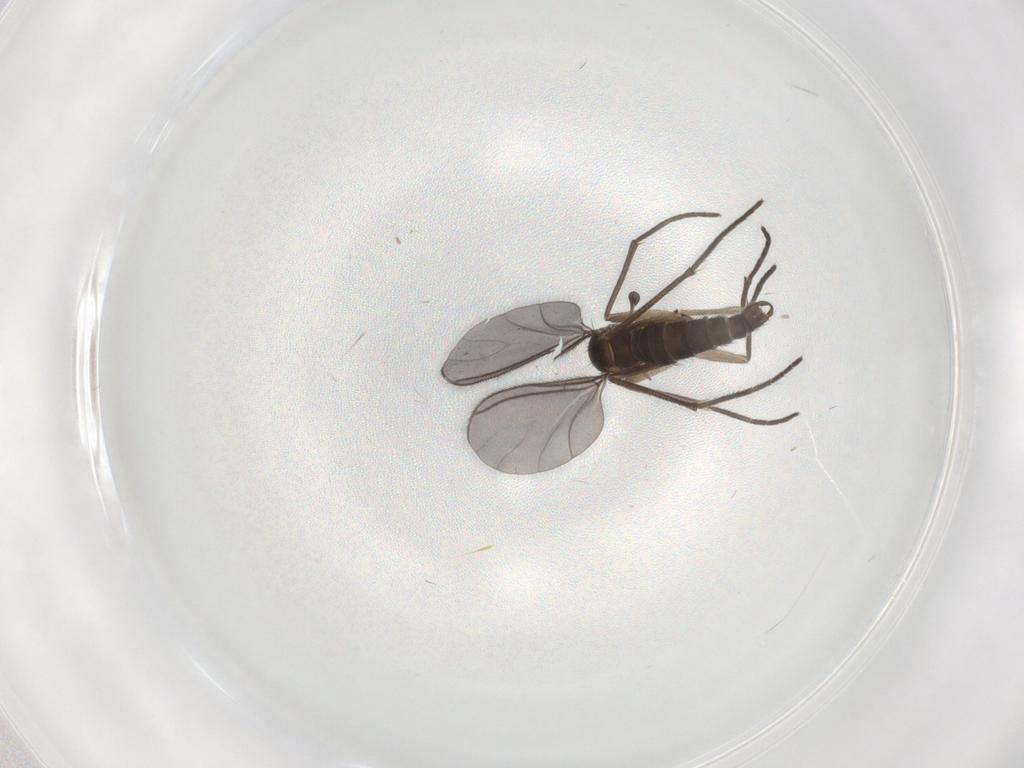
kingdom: Animalia
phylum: Arthropoda
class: Insecta
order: Diptera
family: Sciaridae
